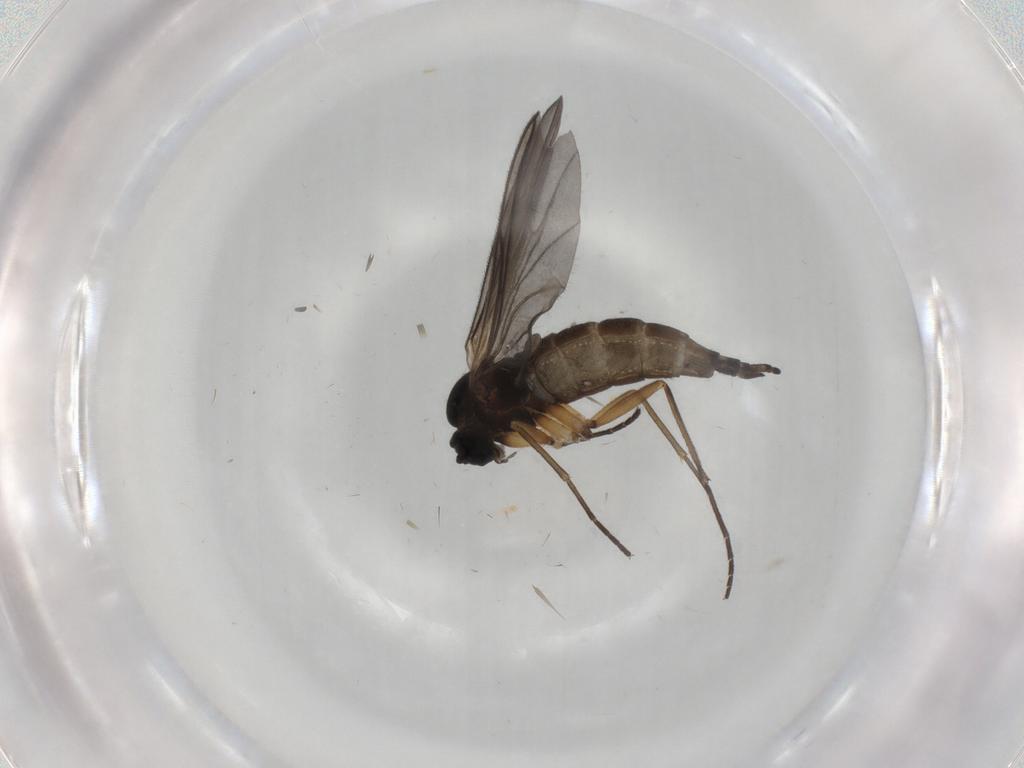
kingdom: Animalia
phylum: Arthropoda
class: Insecta
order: Diptera
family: Sciaridae
